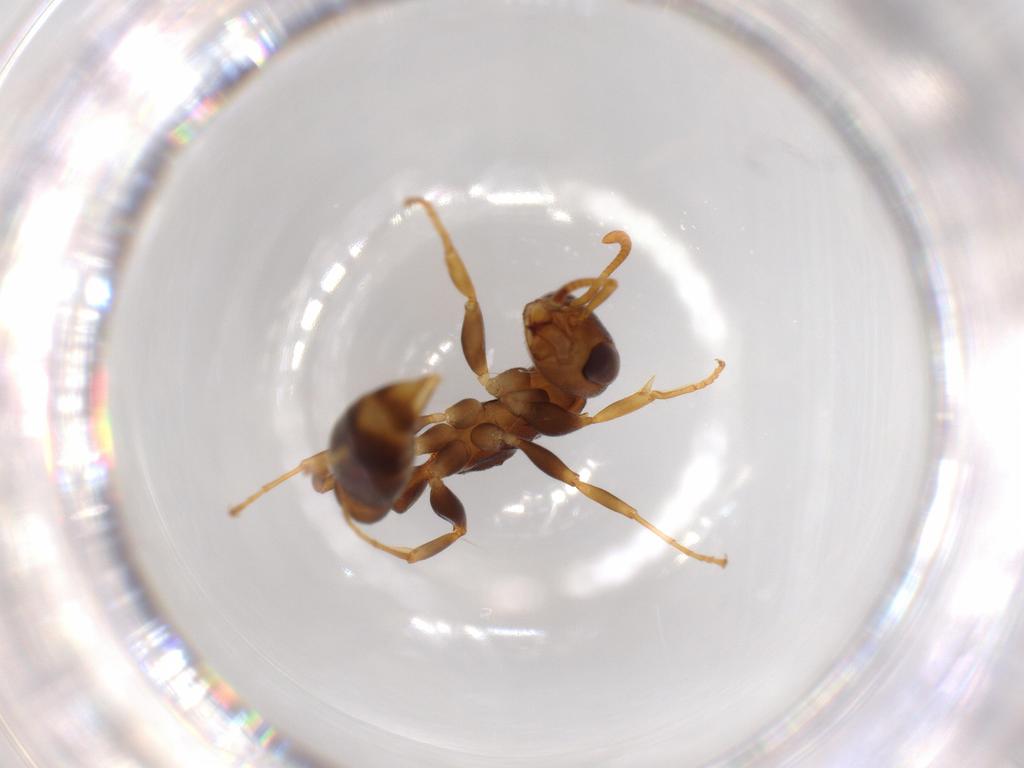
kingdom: Animalia
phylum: Arthropoda
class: Insecta
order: Hymenoptera
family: Formicidae
